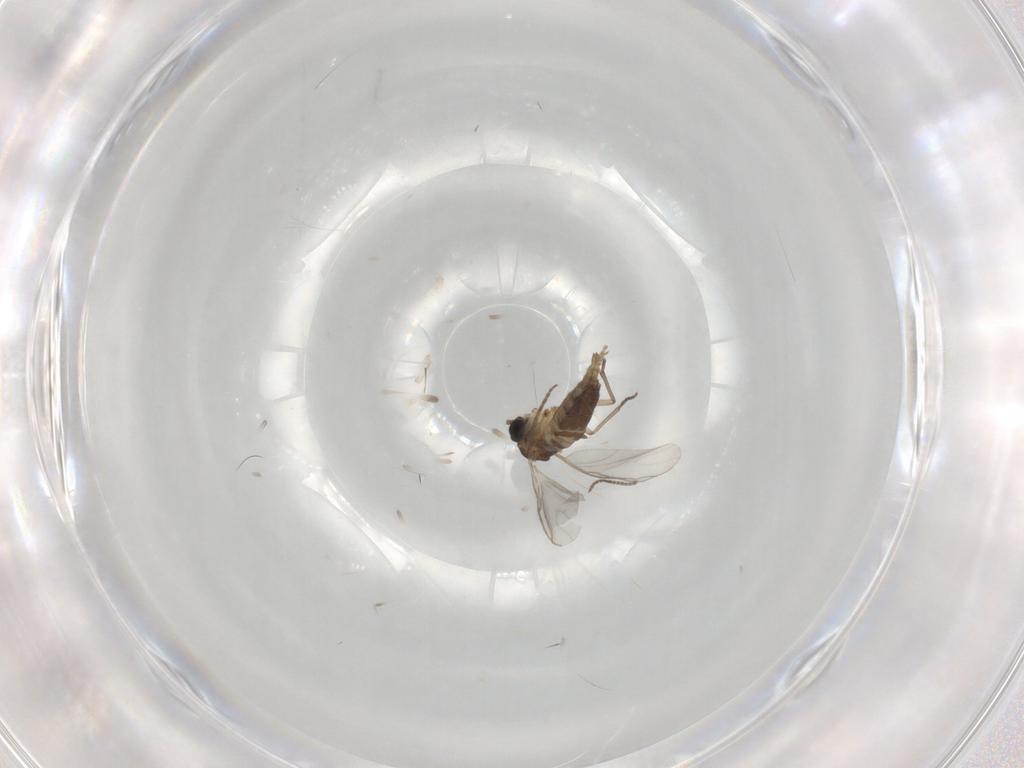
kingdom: Animalia
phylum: Arthropoda
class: Insecta
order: Diptera
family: Sciaridae
